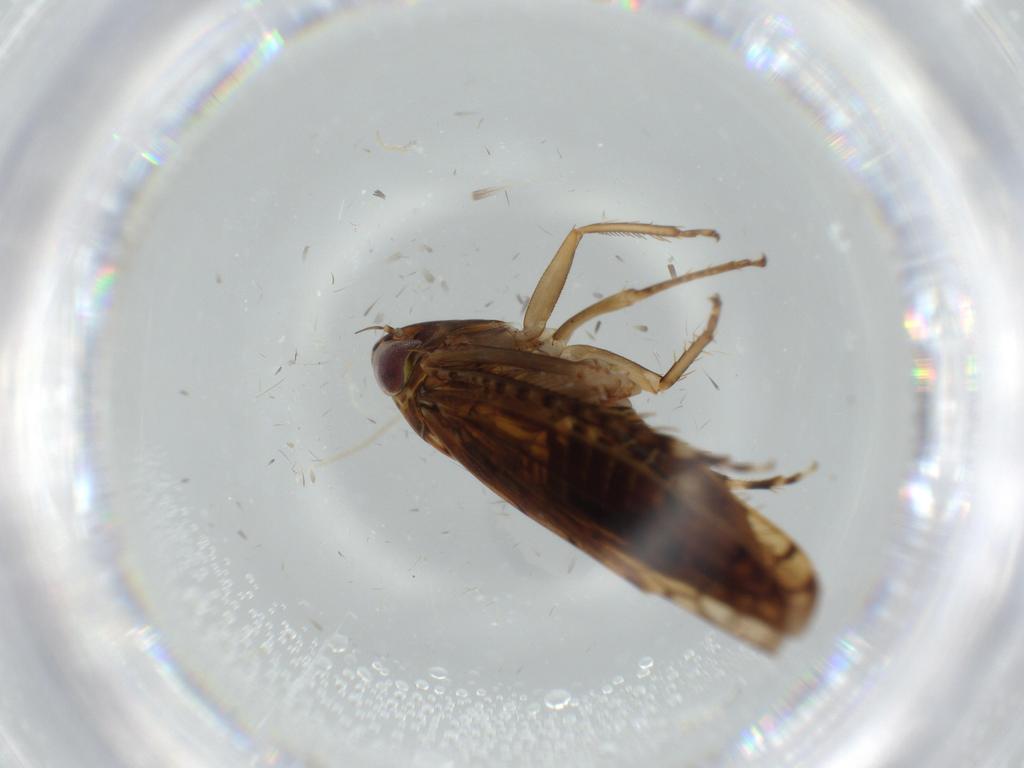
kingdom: Animalia
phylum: Arthropoda
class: Insecta
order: Hemiptera
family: Cicadellidae
